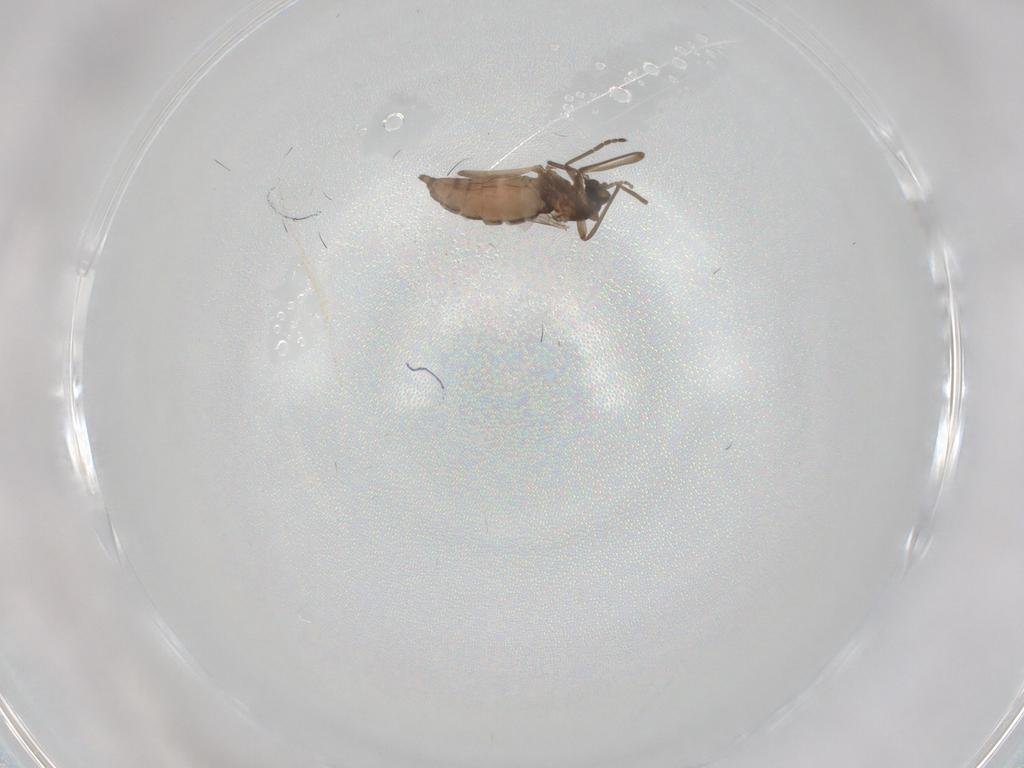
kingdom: Animalia
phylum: Arthropoda
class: Insecta
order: Diptera
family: Cecidomyiidae
